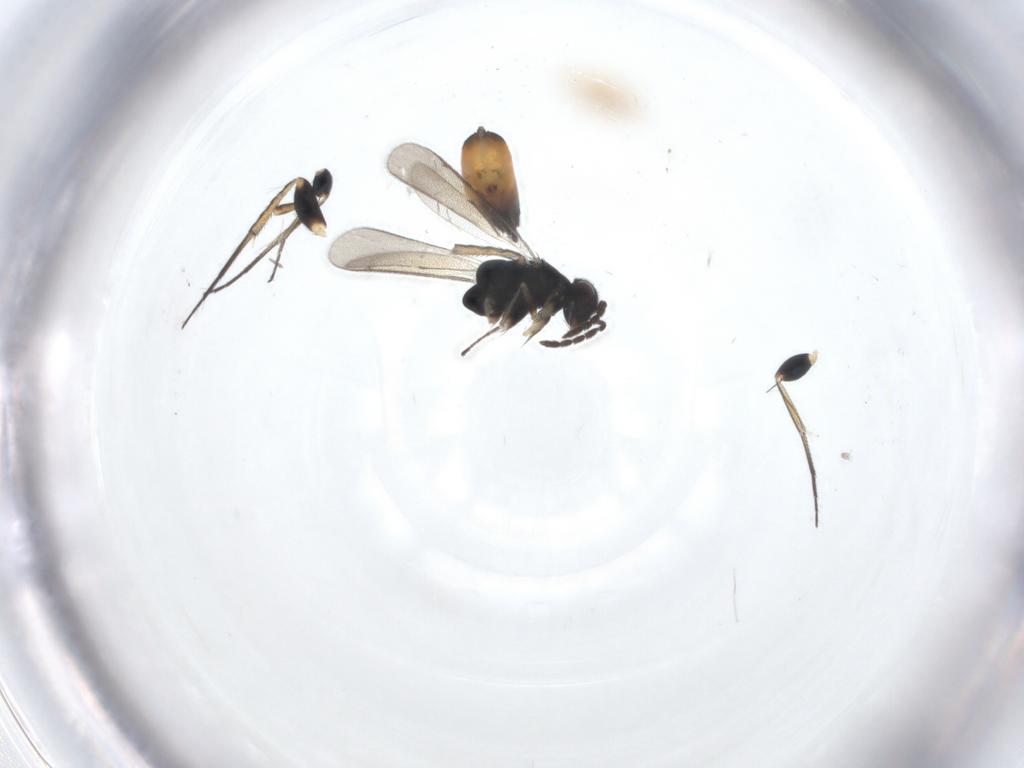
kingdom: Animalia
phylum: Arthropoda
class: Insecta
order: Hymenoptera
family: Eulophidae
